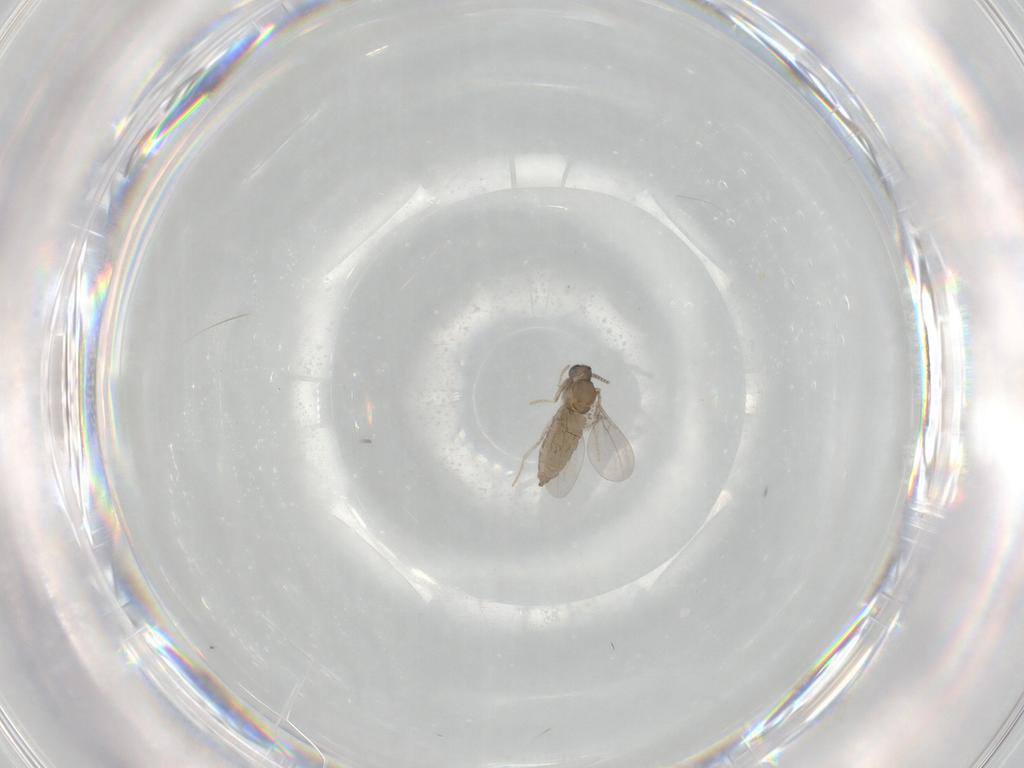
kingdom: Animalia
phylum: Arthropoda
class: Insecta
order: Diptera
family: Cecidomyiidae
